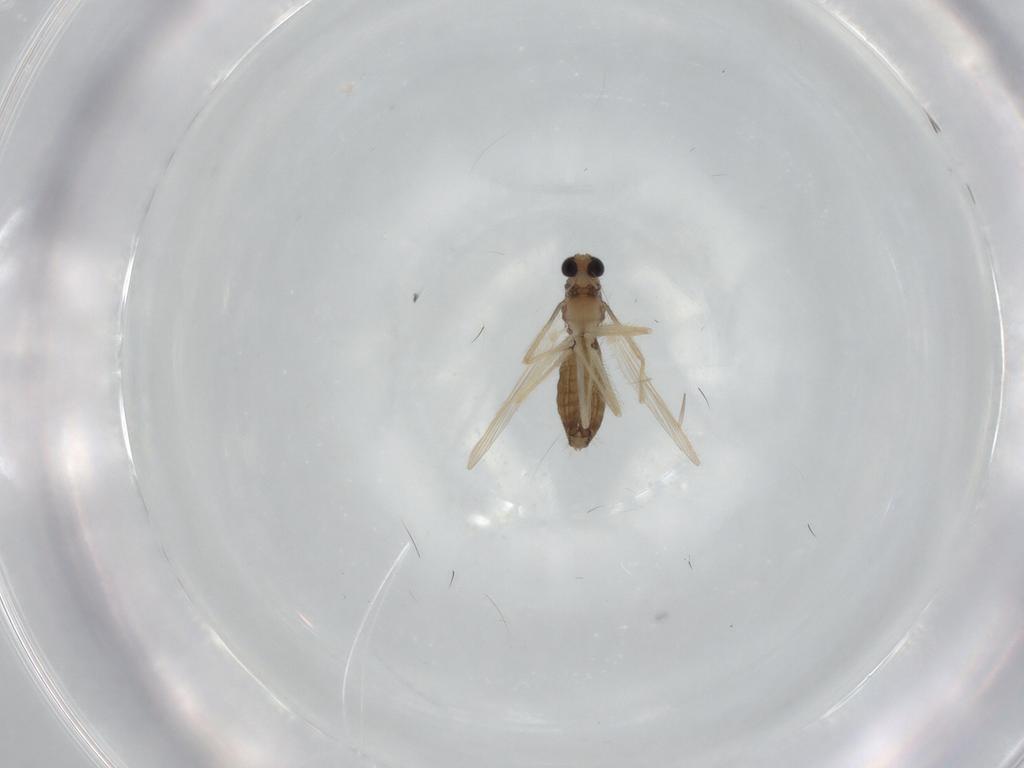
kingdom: Animalia
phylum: Arthropoda
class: Insecta
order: Diptera
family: Chironomidae
